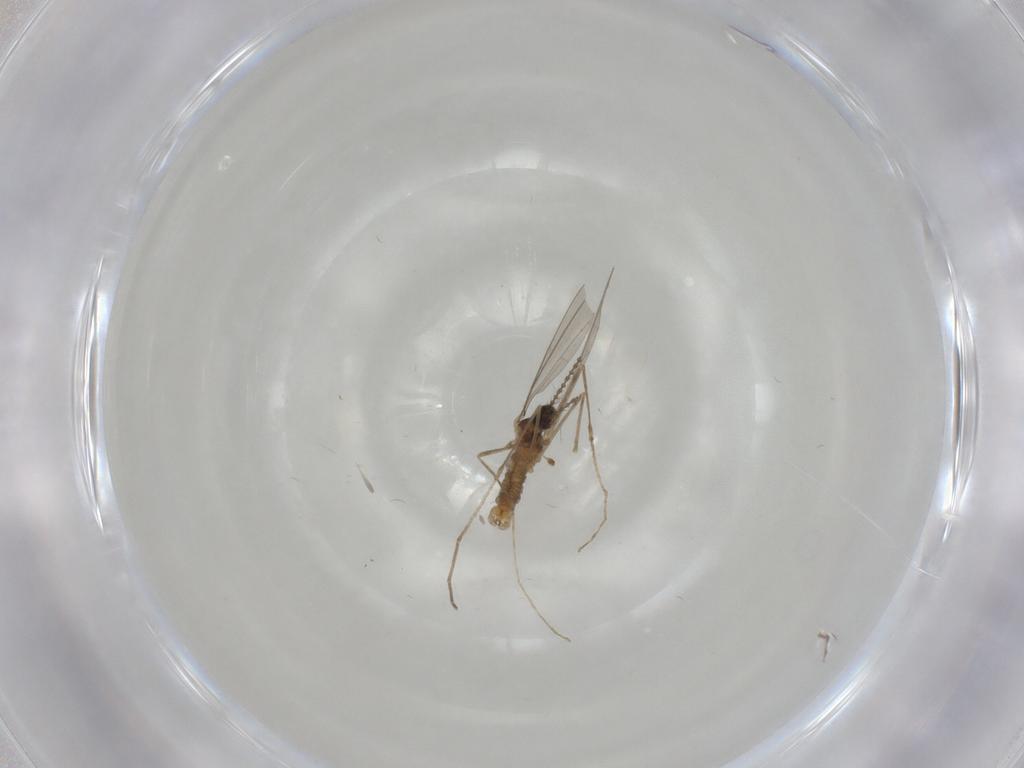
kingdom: Animalia
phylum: Arthropoda
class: Insecta
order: Diptera
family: Cecidomyiidae
